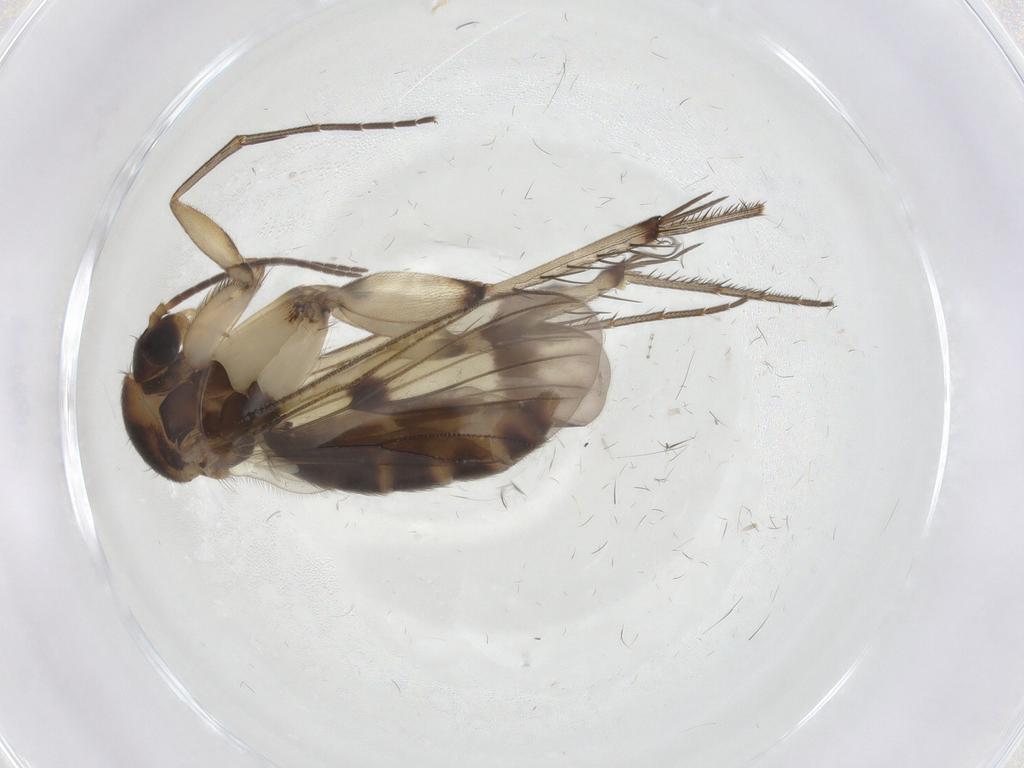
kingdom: Animalia
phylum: Arthropoda
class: Insecta
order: Diptera
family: Cecidomyiidae
